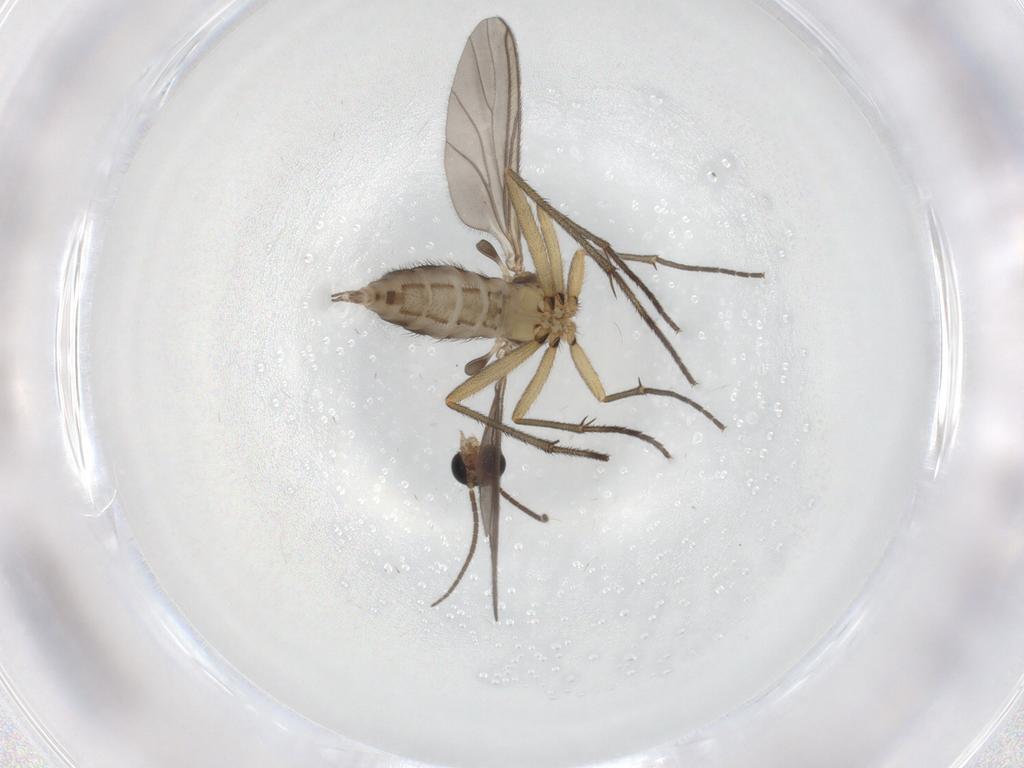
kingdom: Animalia
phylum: Arthropoda
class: Insecta
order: Diptera
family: Sciaridae
